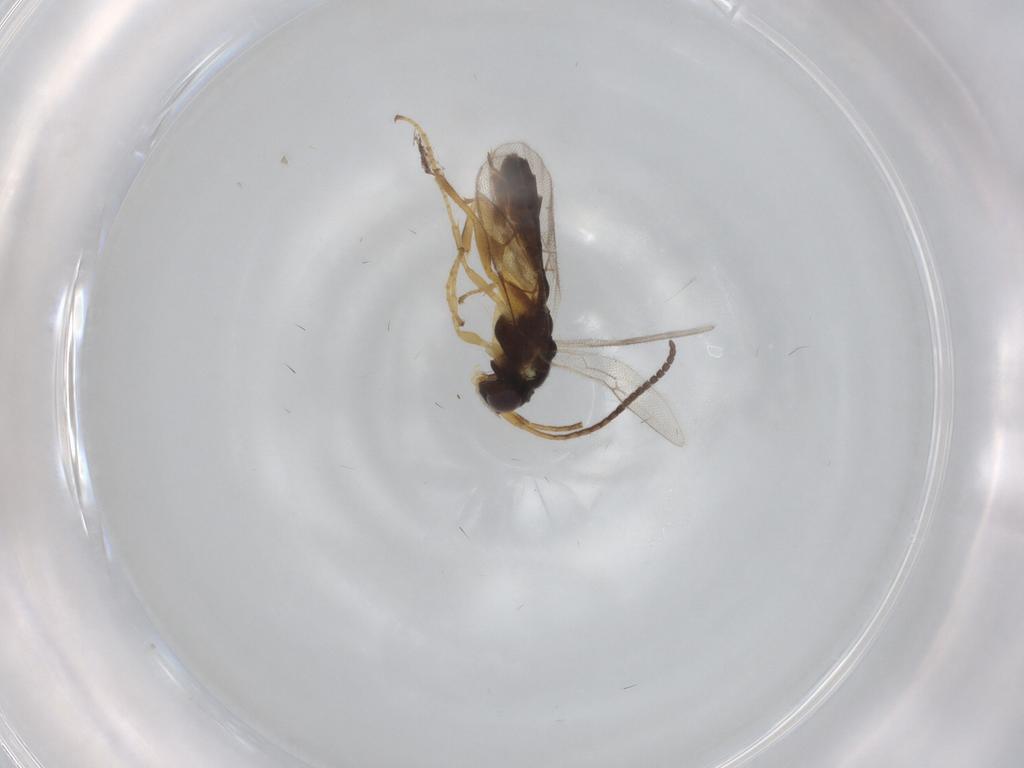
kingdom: Animalia
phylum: Arthropoda
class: Insecta
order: Hymenoptera
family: Ichneumonidae
